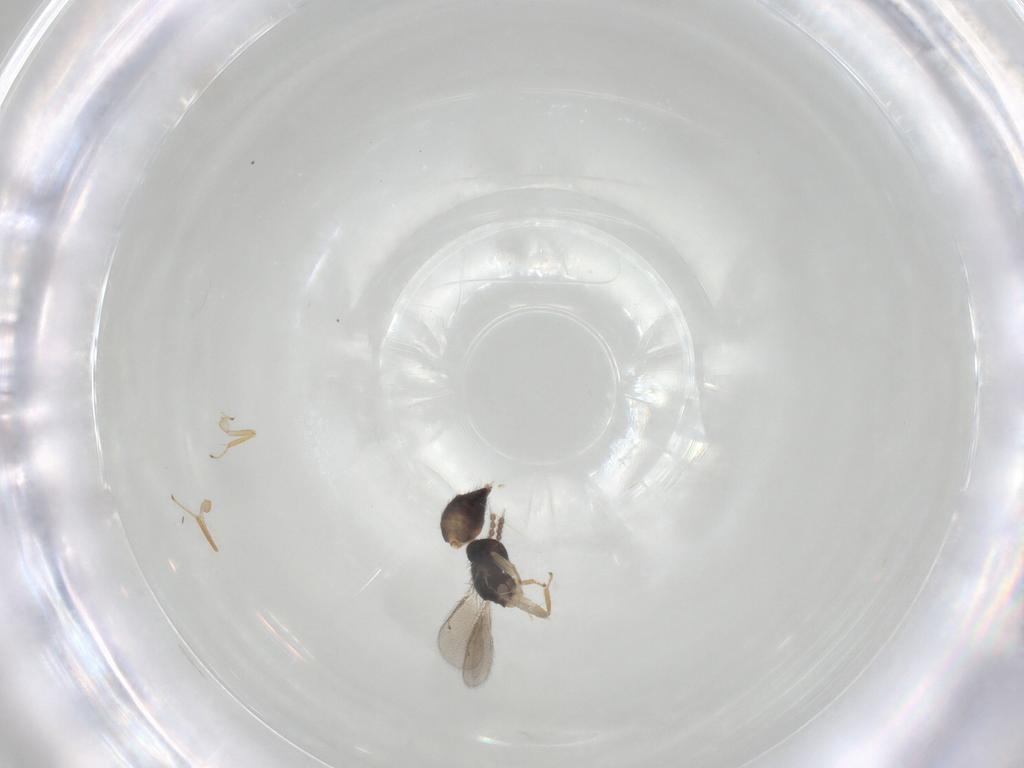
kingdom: Animalia
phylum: Arthropoda
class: Insecta
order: Hymenoptera
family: Eulophidae
